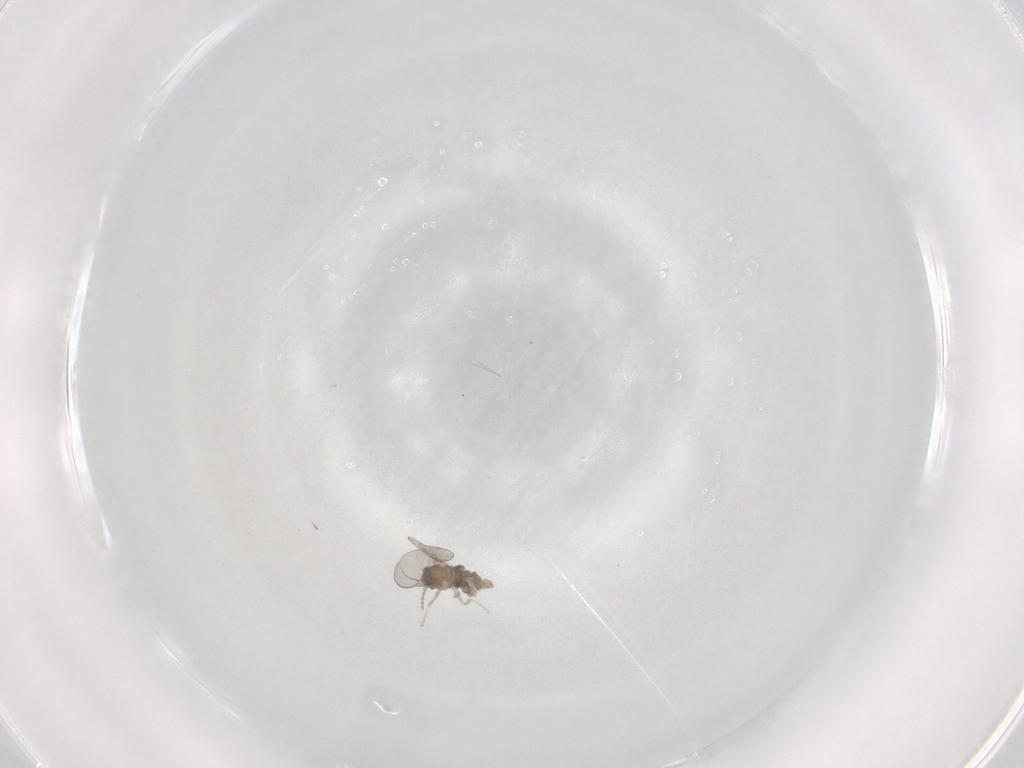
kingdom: Animalia
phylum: Arthropoda
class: Insecta
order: Diptera
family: Cecidomyiidae
